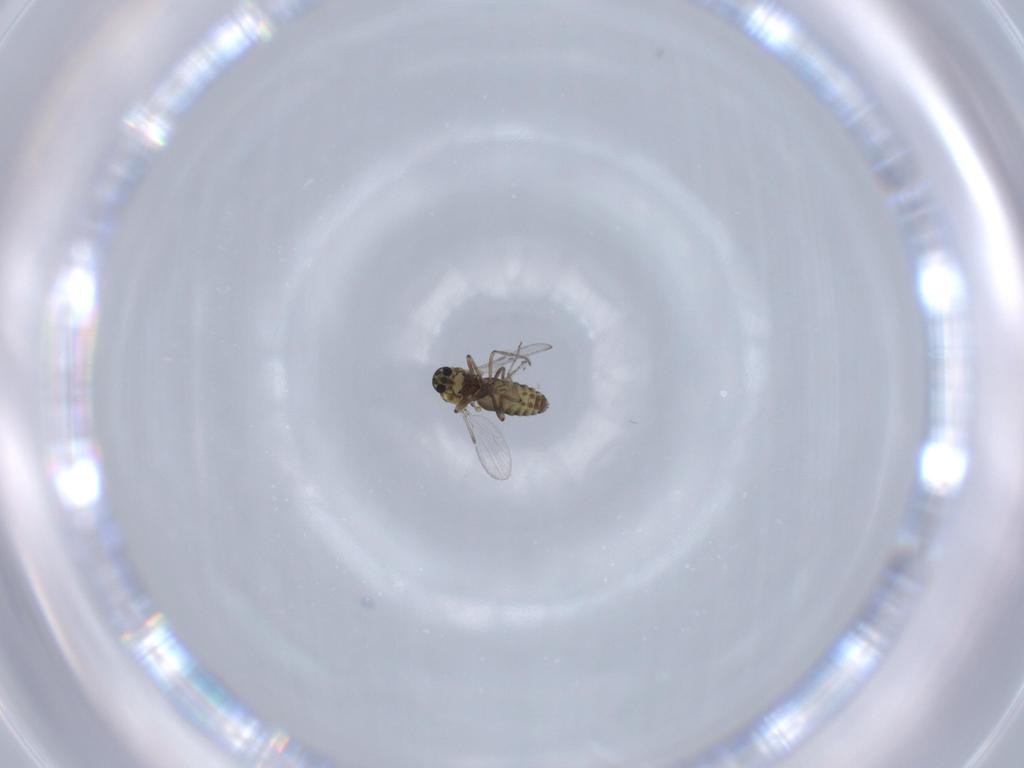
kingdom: Animalia
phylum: Arthropoda
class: Insecta
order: Diptera
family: Ceratopogonidae
